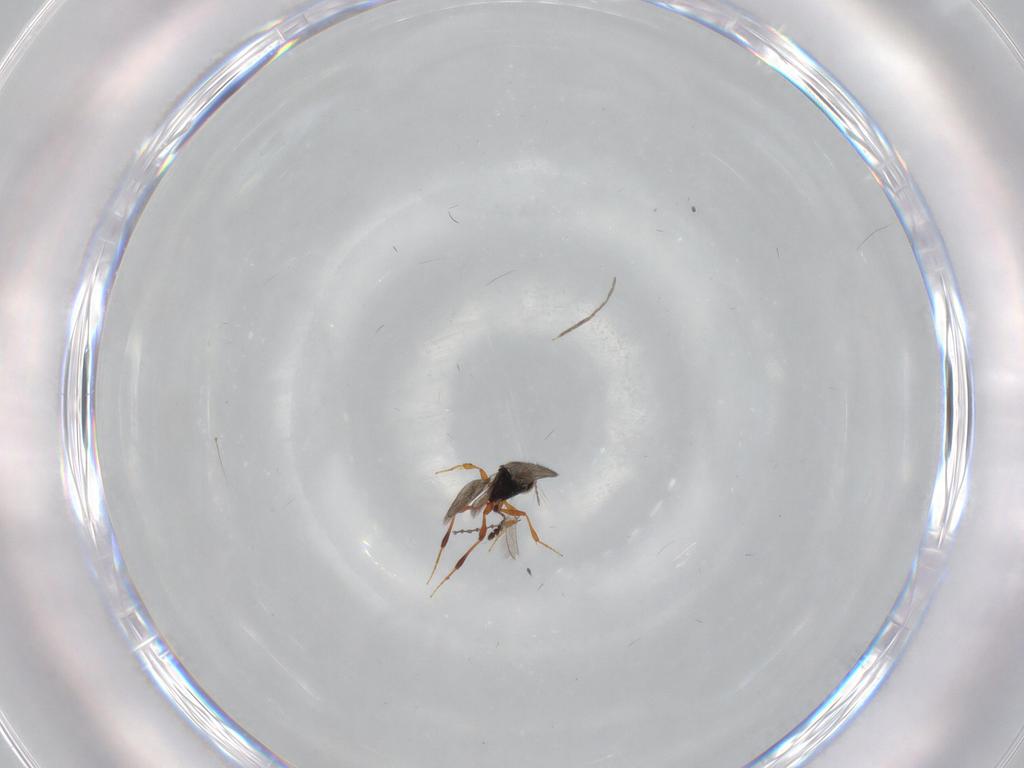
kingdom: Animalia
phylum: Arthropoda
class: Insecta
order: Hymenoptera
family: Platygastridae
